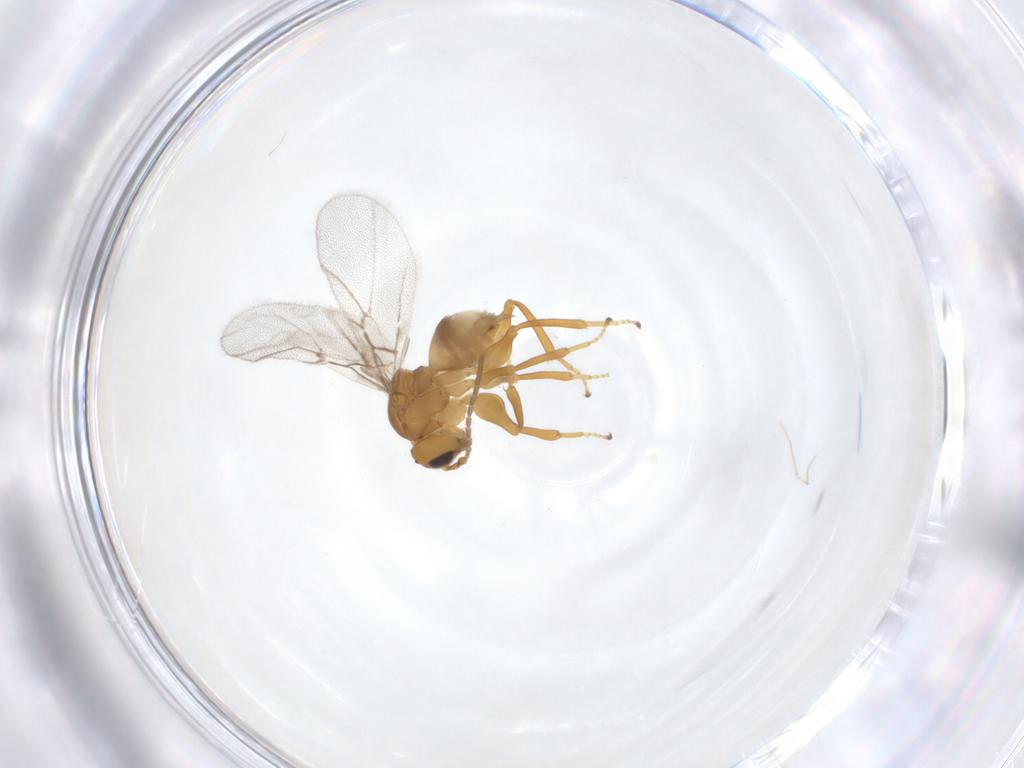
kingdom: Animalia
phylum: Arthropoda
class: Insecta
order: Hymenoptera
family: Cynipidae
